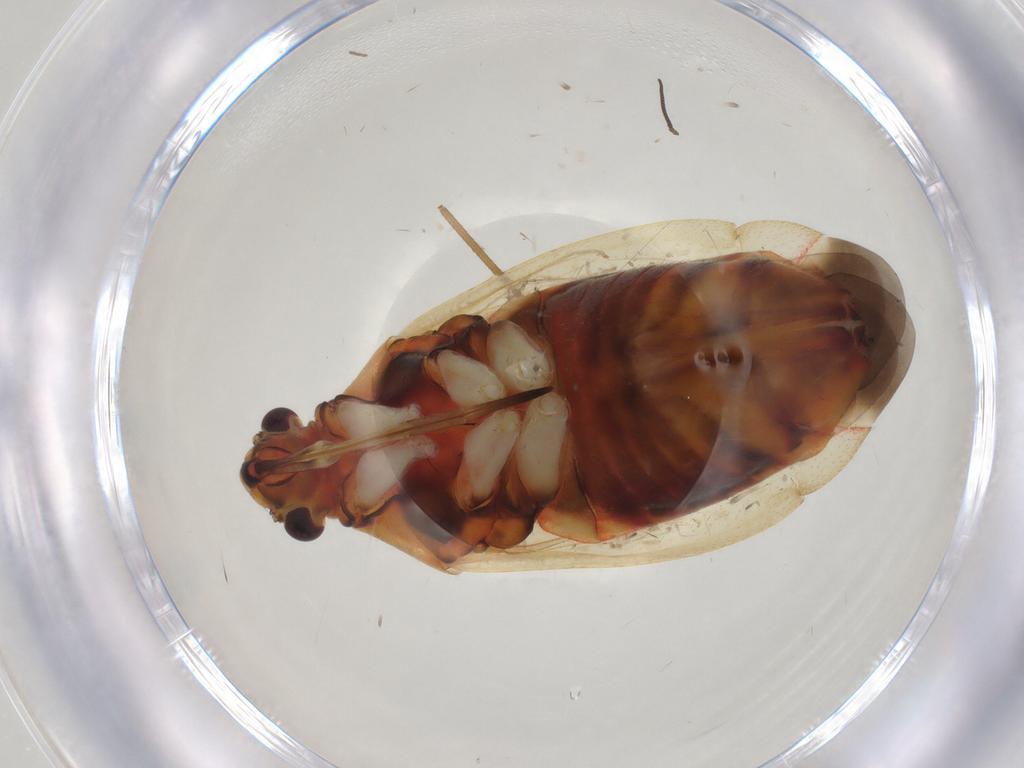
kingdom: Animalia
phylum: Arthropoda
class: Insecta
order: Hemiptera
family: Miridae
